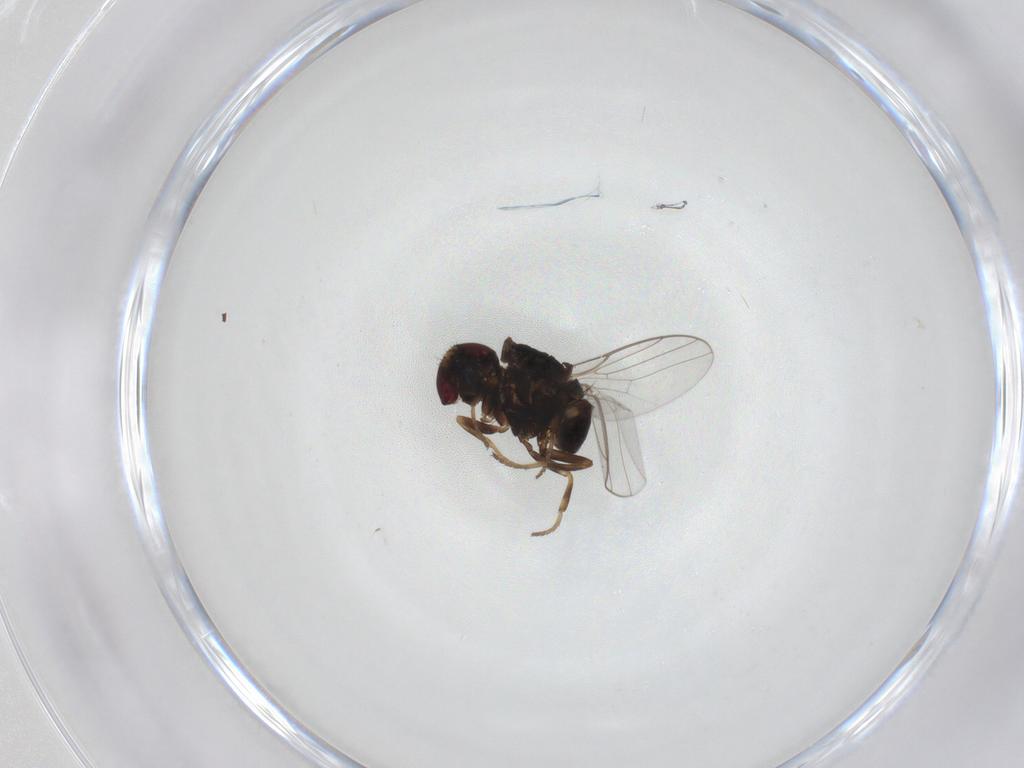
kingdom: Animalia
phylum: Arthropoda
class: Insecta
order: Diptera
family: Chloropidae
